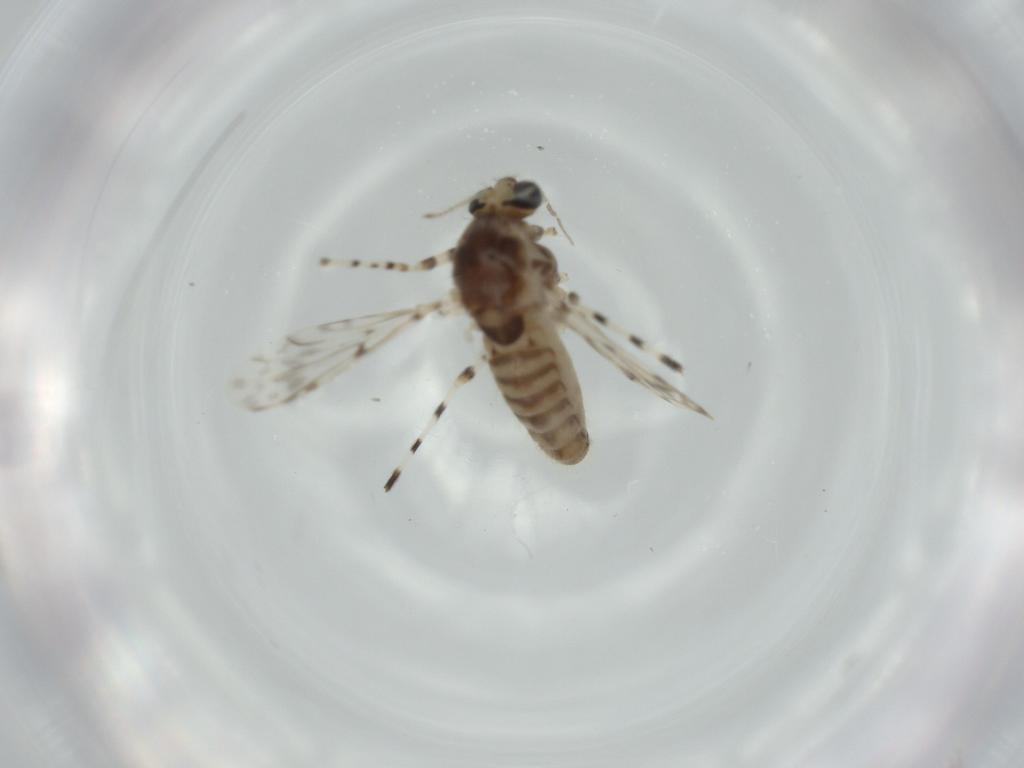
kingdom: Animalia
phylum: Arthropoda
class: Insecta
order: Diptera
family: Chironomidae
